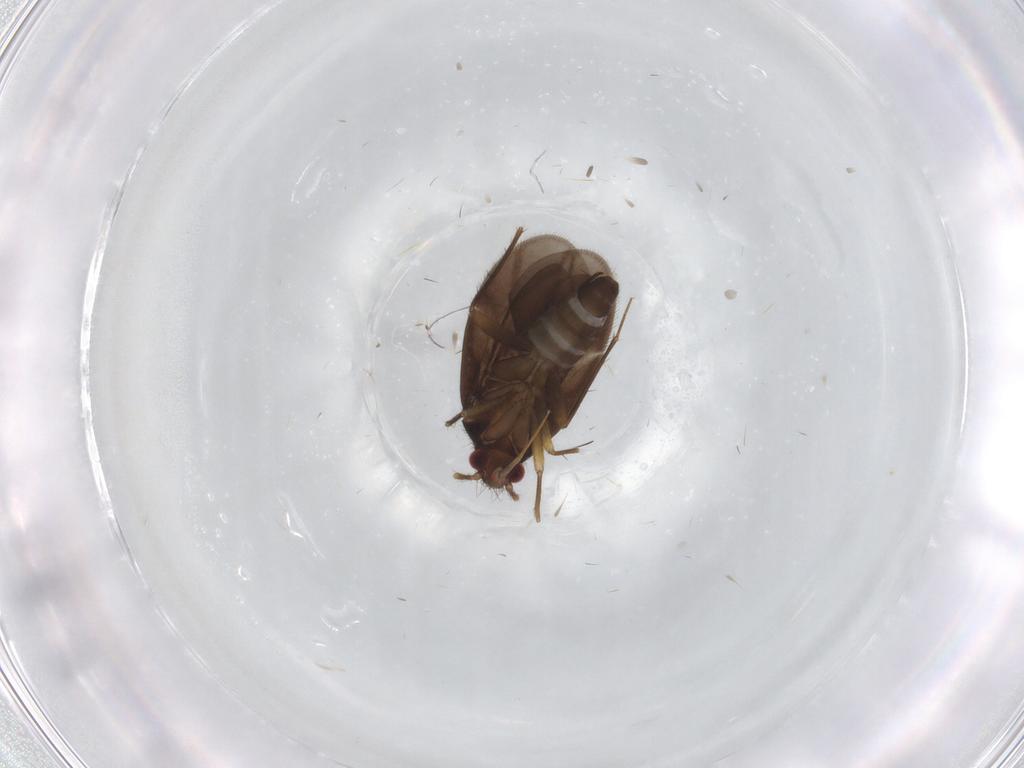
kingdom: Animalia
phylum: Arthropoda
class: Insecta
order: Hemiptera
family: Ceratocombidae
